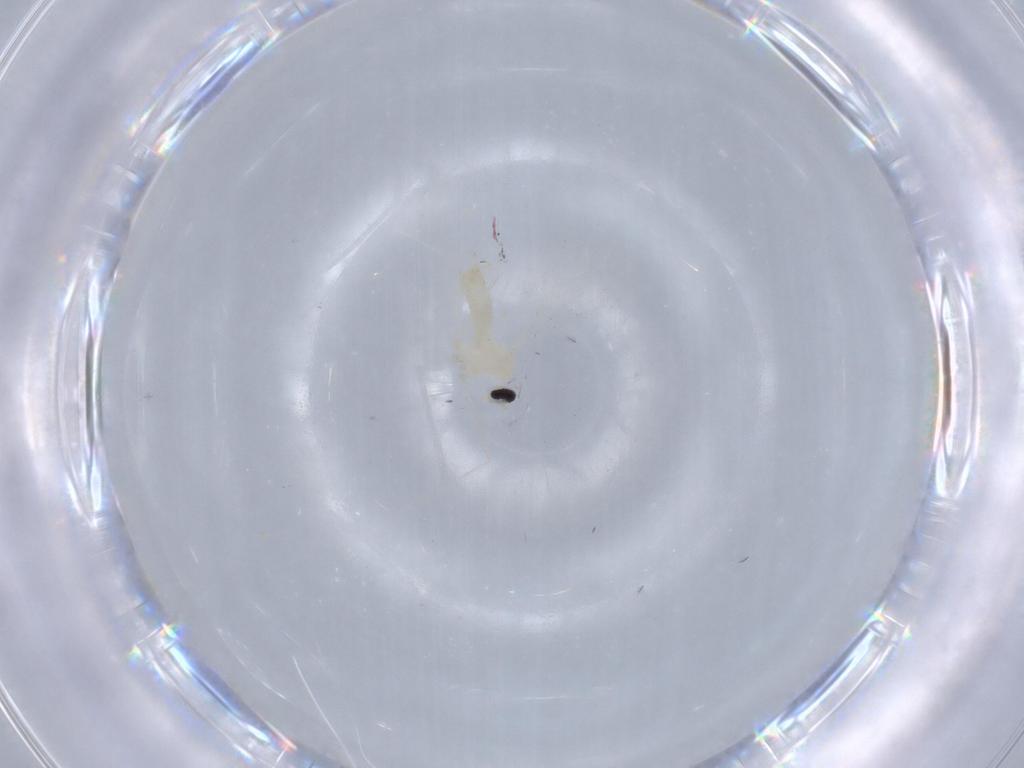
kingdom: Animalia
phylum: Arthropoda
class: Insecta
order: Diptera
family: Cecidomyiidae
